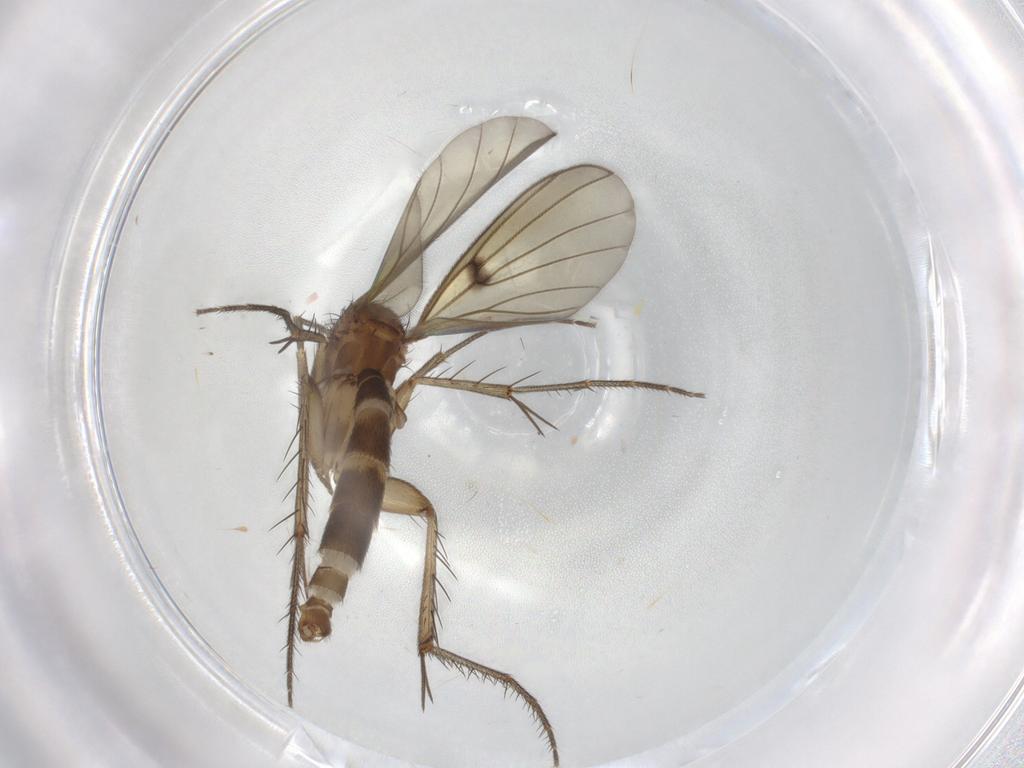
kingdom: Animalia
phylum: Arthropoda
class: Insecta
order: Diptera
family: Mycetophilidae
